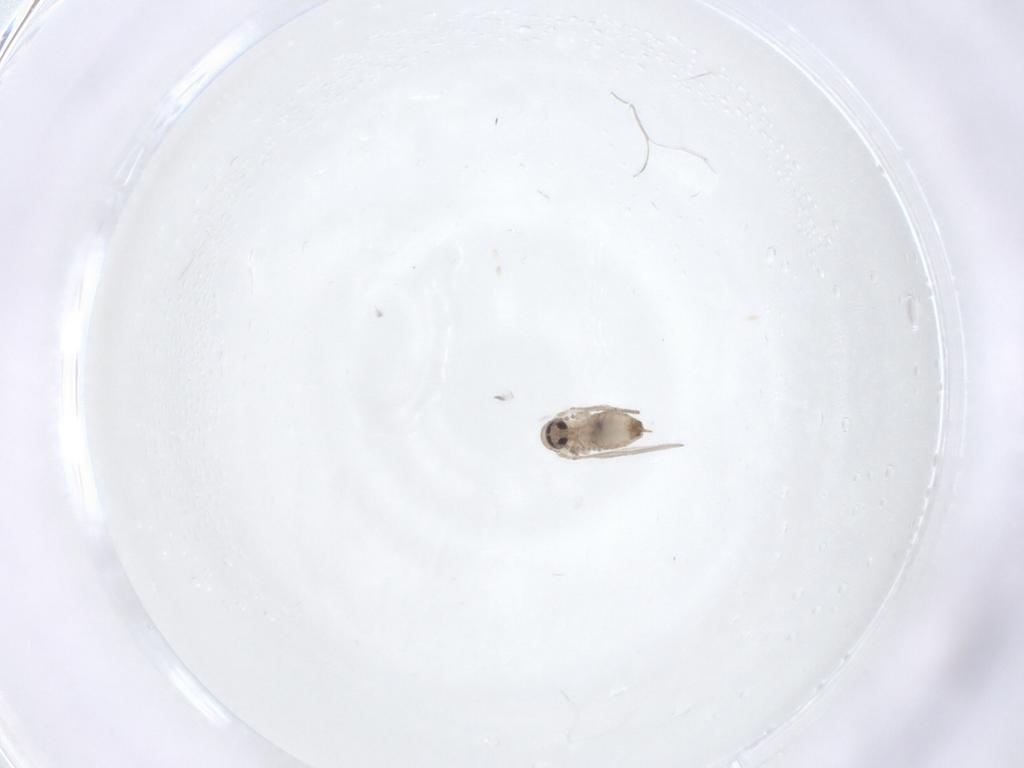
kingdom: Animalia
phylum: Arthropoda
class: Insecta
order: Diptera
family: Psychodidae
